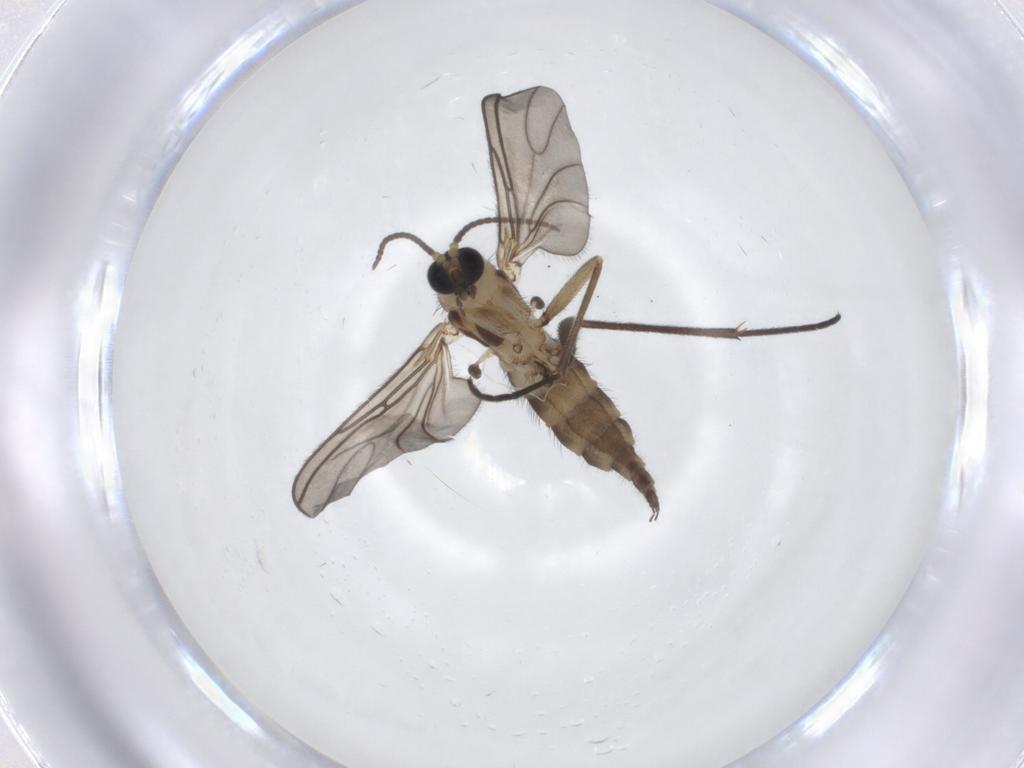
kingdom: Animalia
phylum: Arthropoda
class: Insecta
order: Diptera
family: Sciaridae
